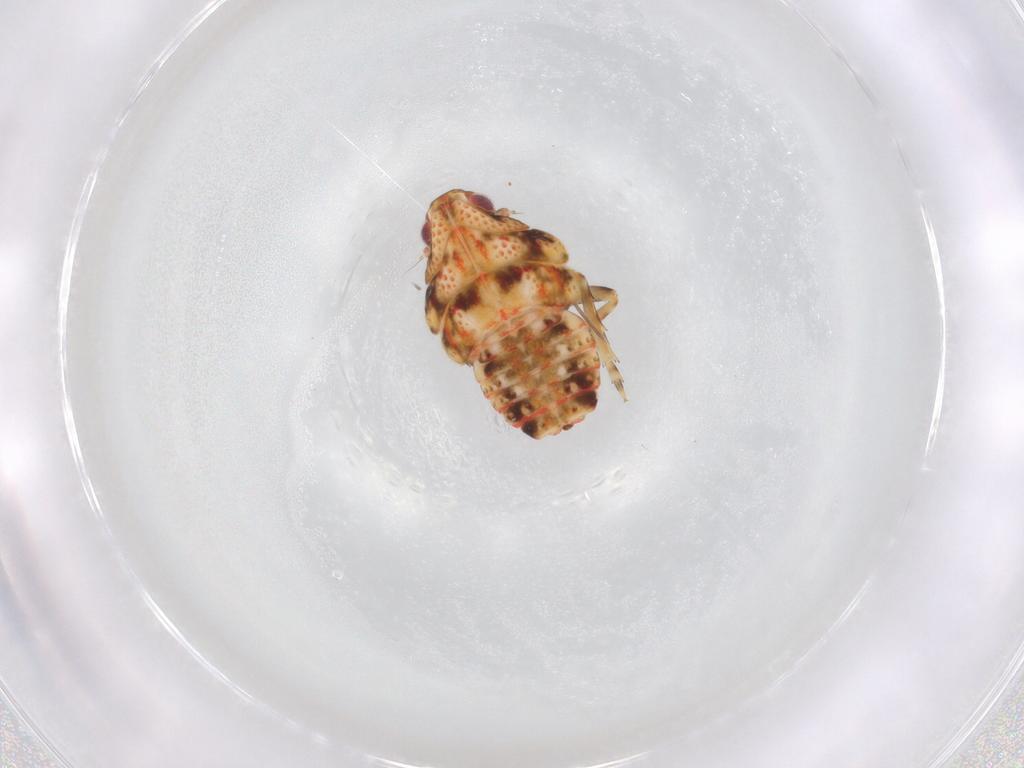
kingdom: Animalia
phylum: Arthropoda
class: Insecta
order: Hemiptera
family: Flatidae
